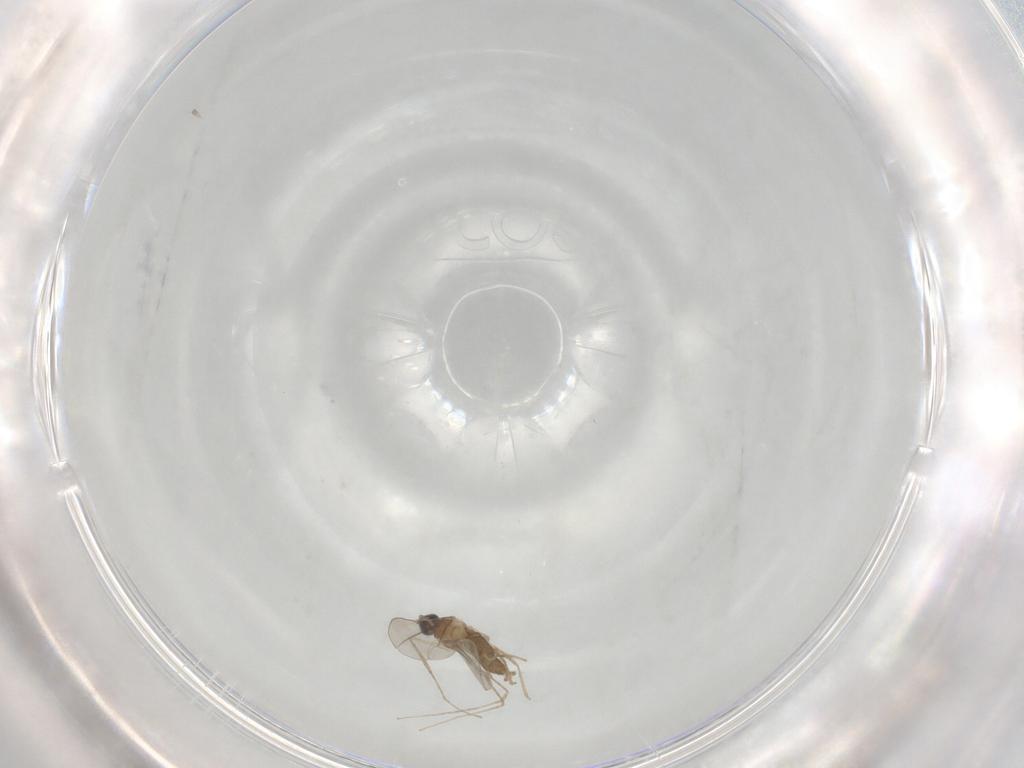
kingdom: Animalia
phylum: Arthropoda
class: Insecta
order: Diptera
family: Cecidomyiidae
